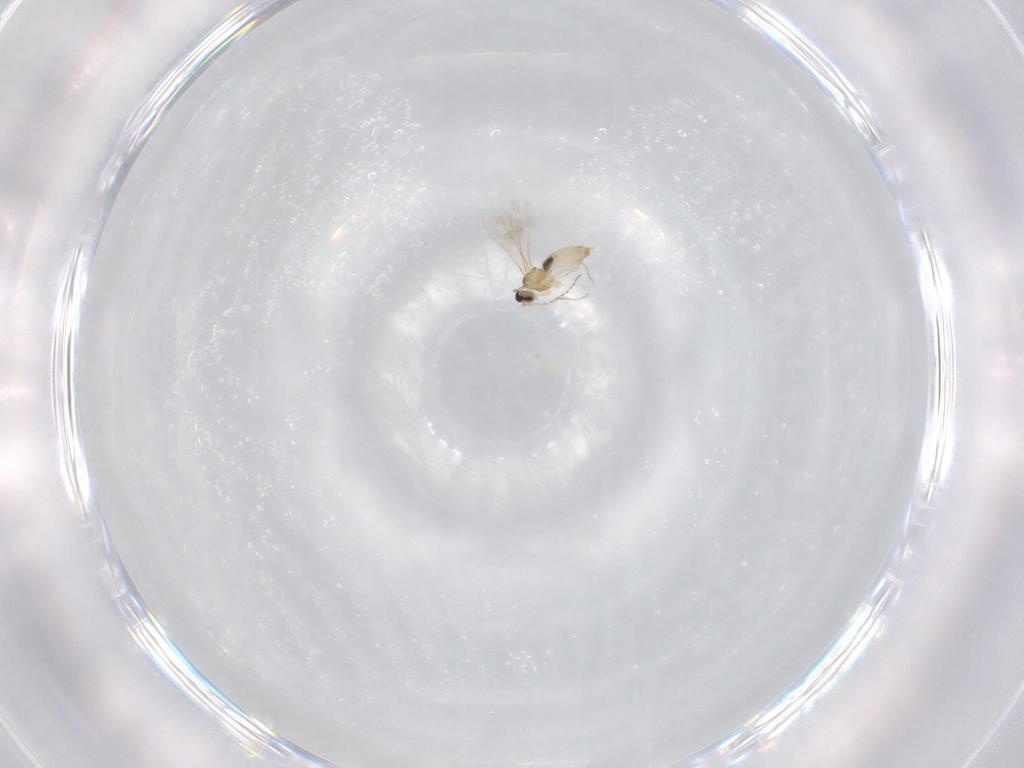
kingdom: Animalia
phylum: Arthropoda
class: Insecta
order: Diptera
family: Cecidomyiidae
